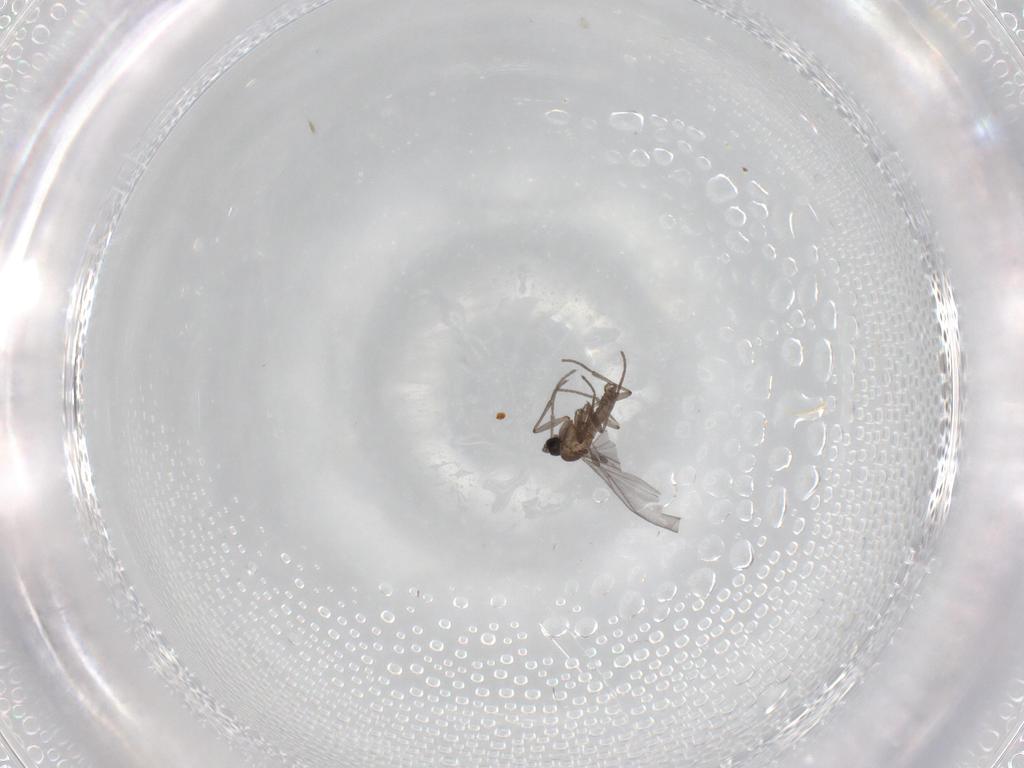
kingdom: Animalia
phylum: Arthropoda
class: Insecta
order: Diptera
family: Sciaridae
